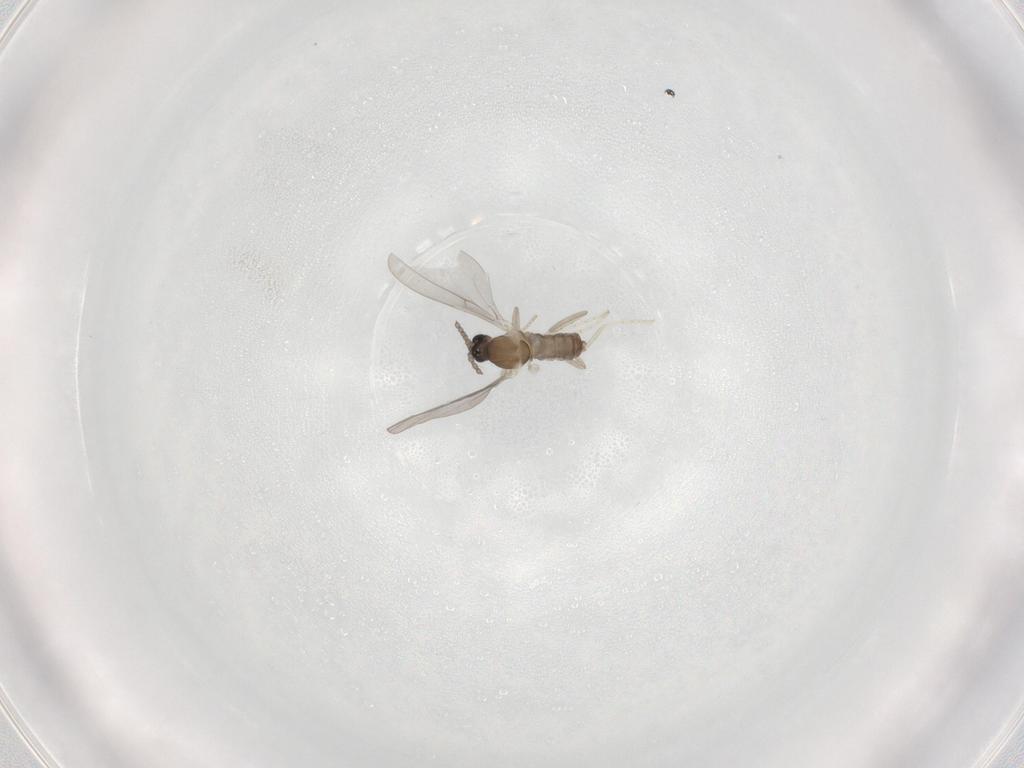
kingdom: Animalia
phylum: Arthropoda
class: Insecta
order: Diptera
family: Cecidomyiidae
